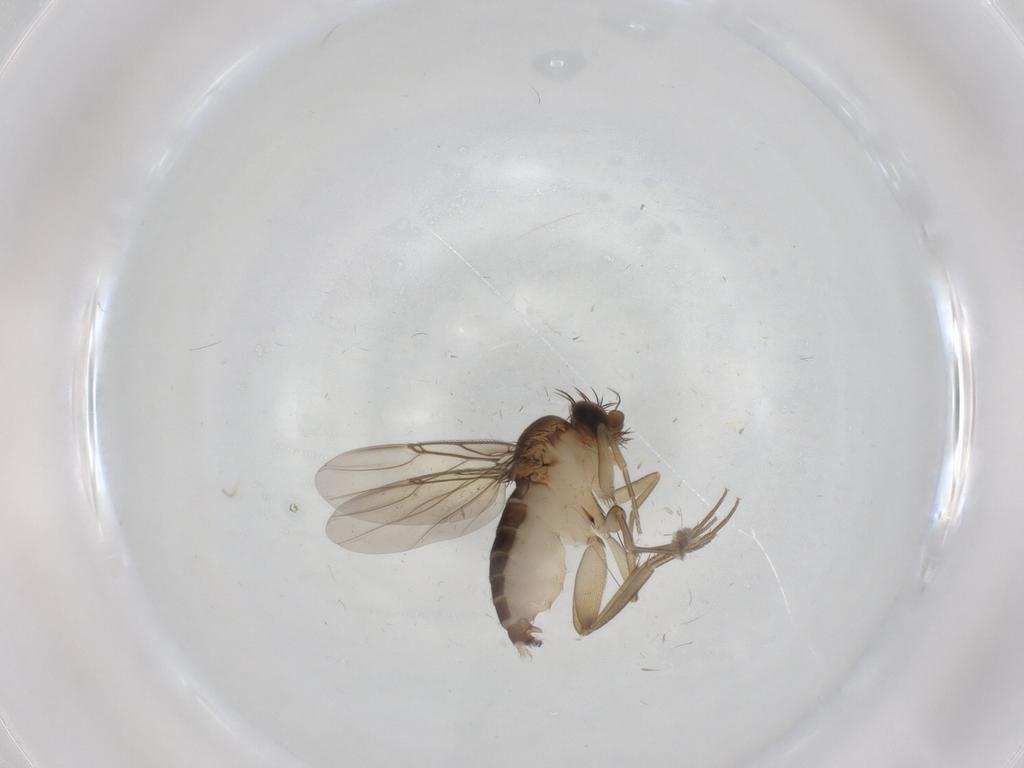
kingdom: Animalia
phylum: Arthropoda
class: Insecta
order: Diptera
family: Phoridae
